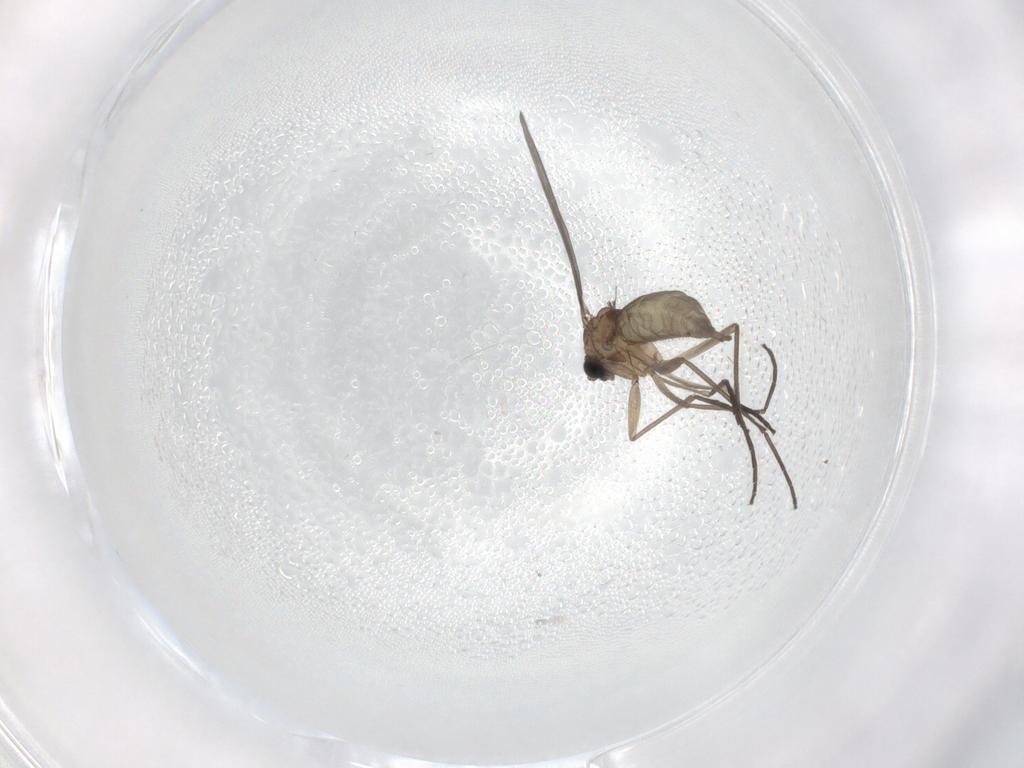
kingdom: Animalia
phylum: Arthropoda
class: Insecta
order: Diptera
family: Sciaridae
